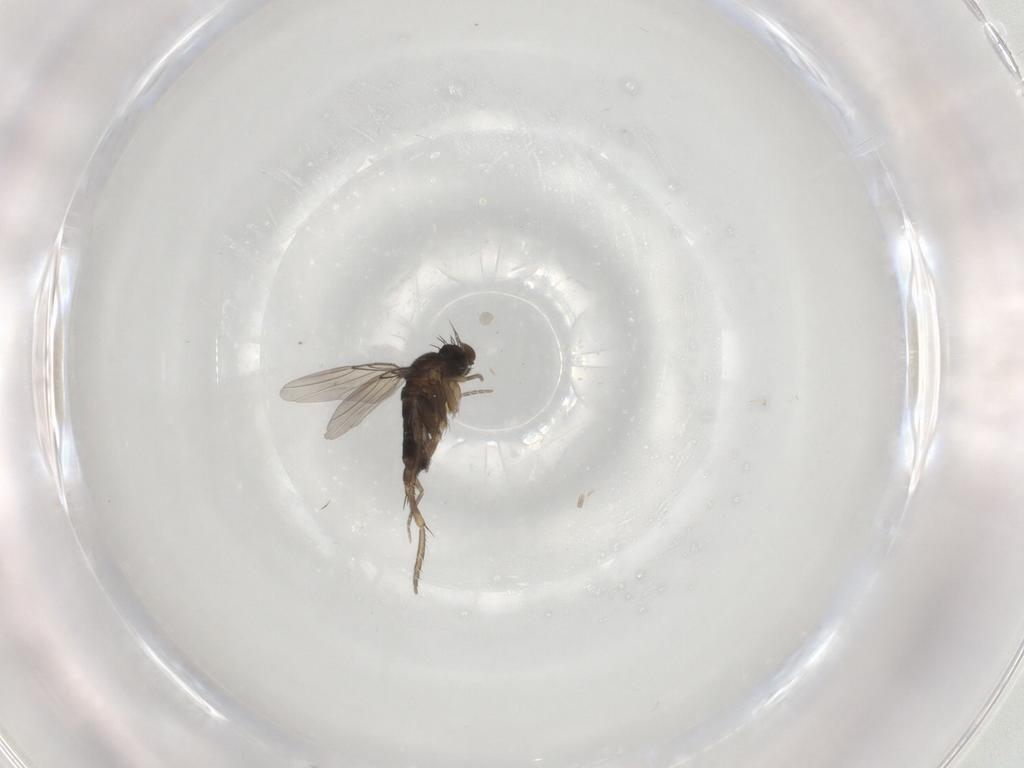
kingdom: Animalia
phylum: Arthropoda
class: Insecta
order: Diptera
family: Phoridae
